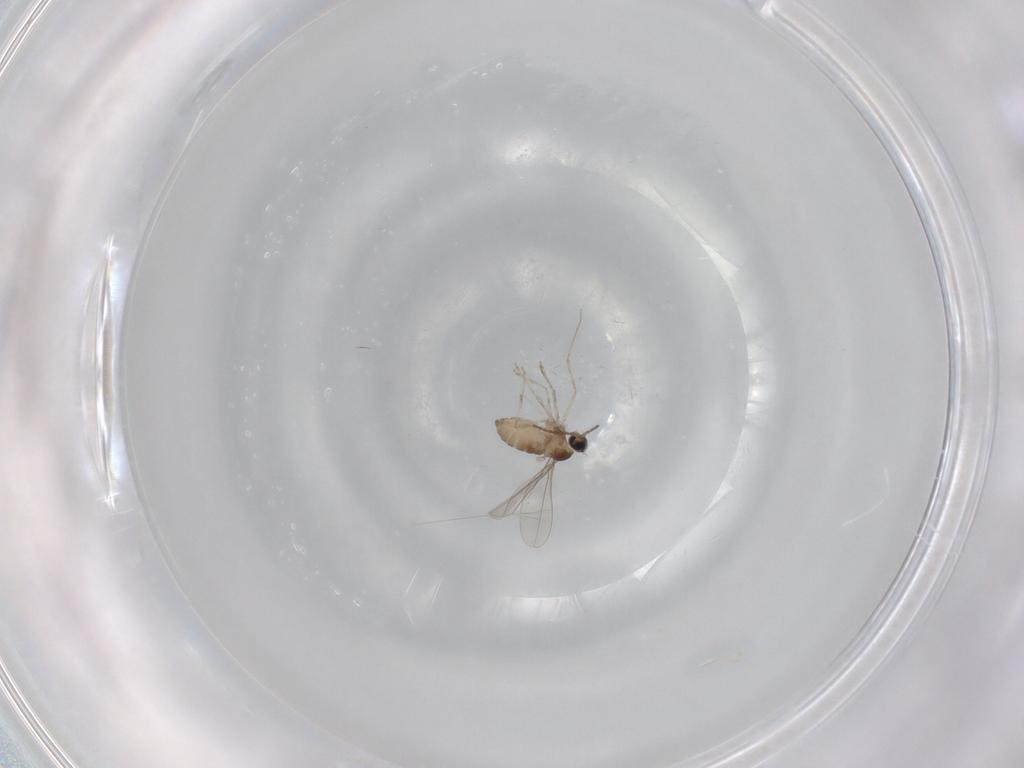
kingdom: Animalia
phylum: Arthropoda
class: Insecta
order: Diptera
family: Cecidomyiidae
